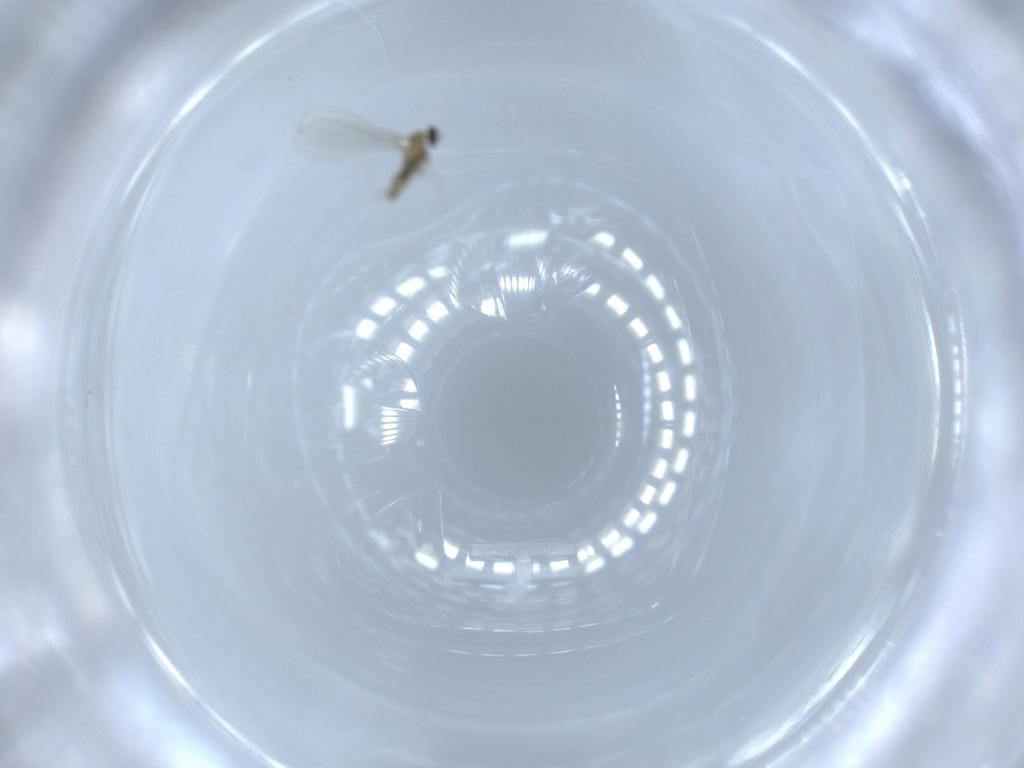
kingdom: Animalia
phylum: Arthropoda
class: Insecta
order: Diptera
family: Cecidomyiidae
